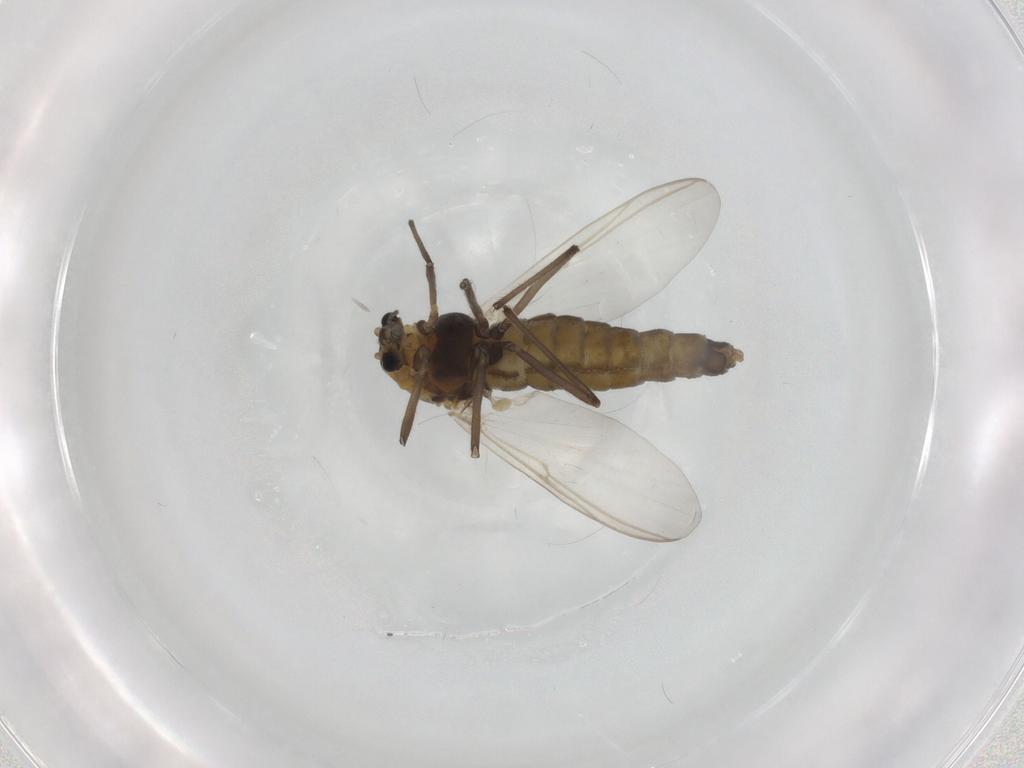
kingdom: Animalia
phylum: Arthropoda
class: Insecta
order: Diptera
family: Chironomidae
